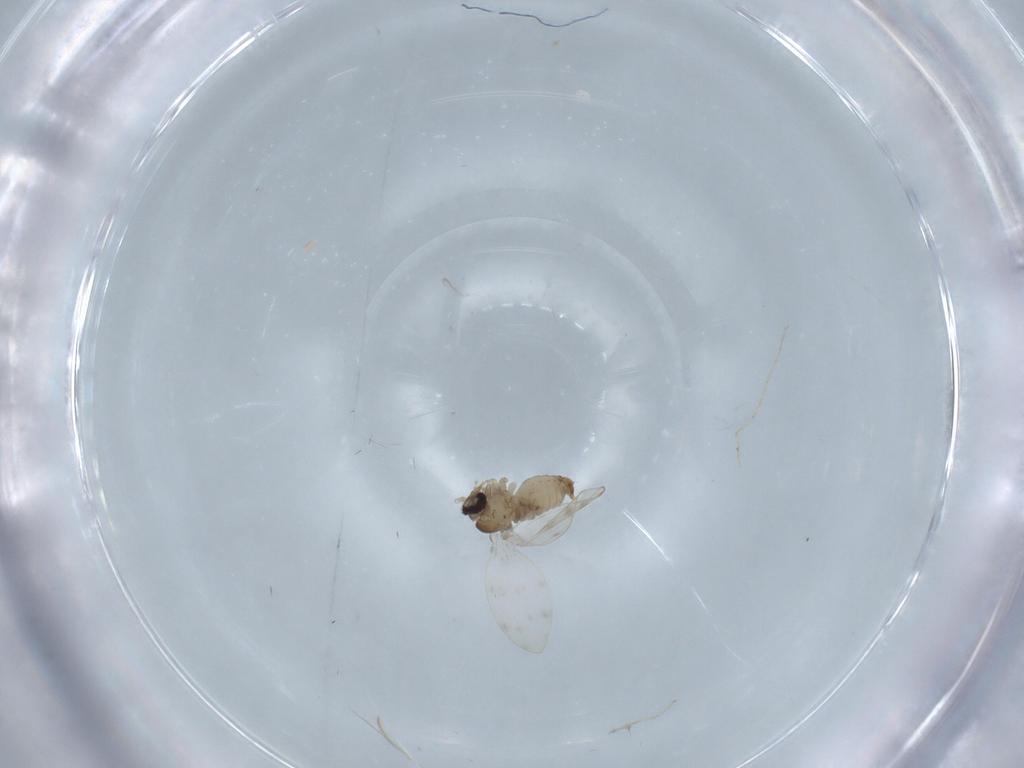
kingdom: Animalia
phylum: Arthropoda
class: Insecta
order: Diptera
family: Psychodidae
